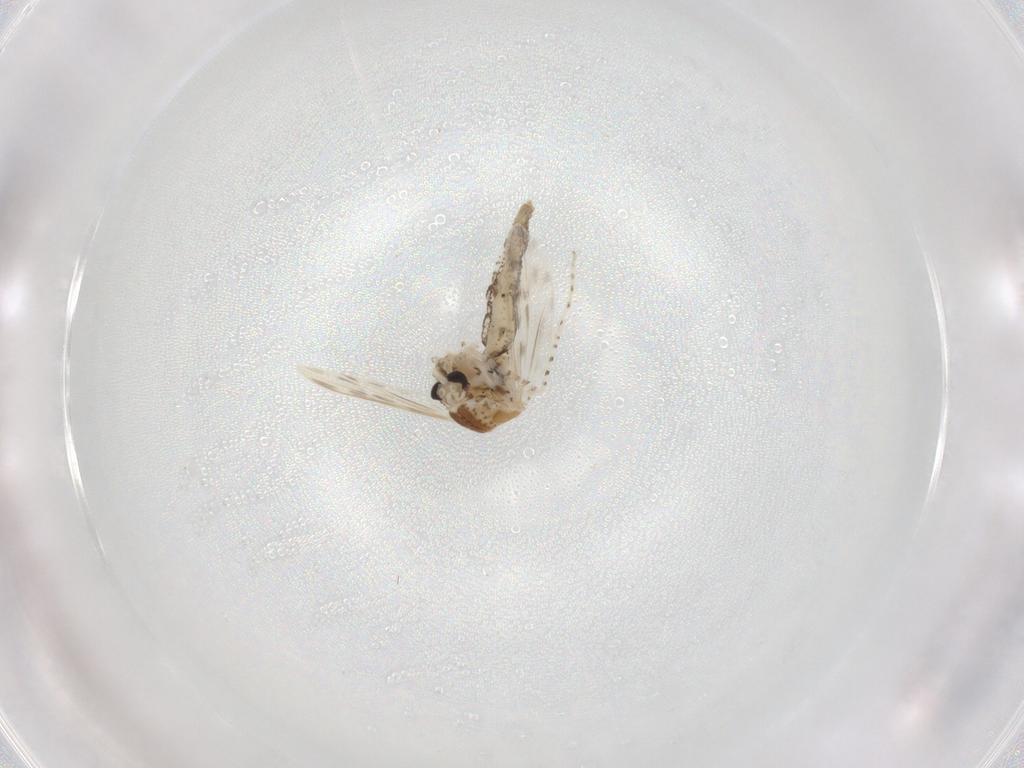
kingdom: Animalia
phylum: Arthropoda
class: Insecta
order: Diptera
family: Chaoboridae
